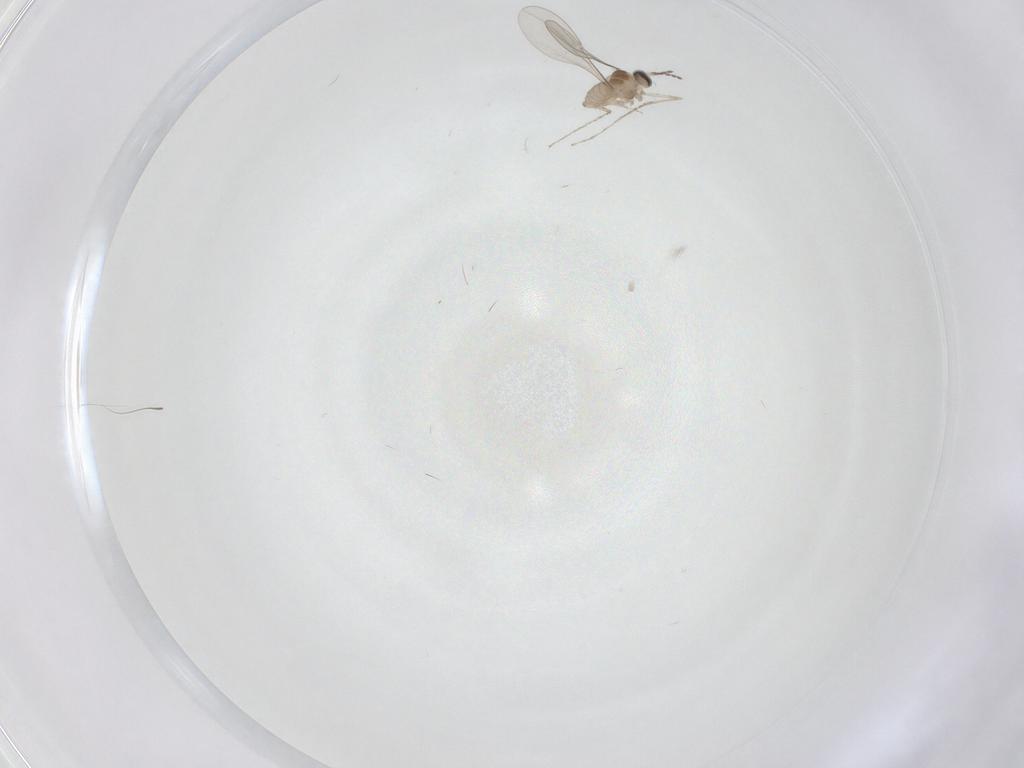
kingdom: Animalia
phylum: Arthropoda
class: Insecta
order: Diptera
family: Cecidomyiidae
